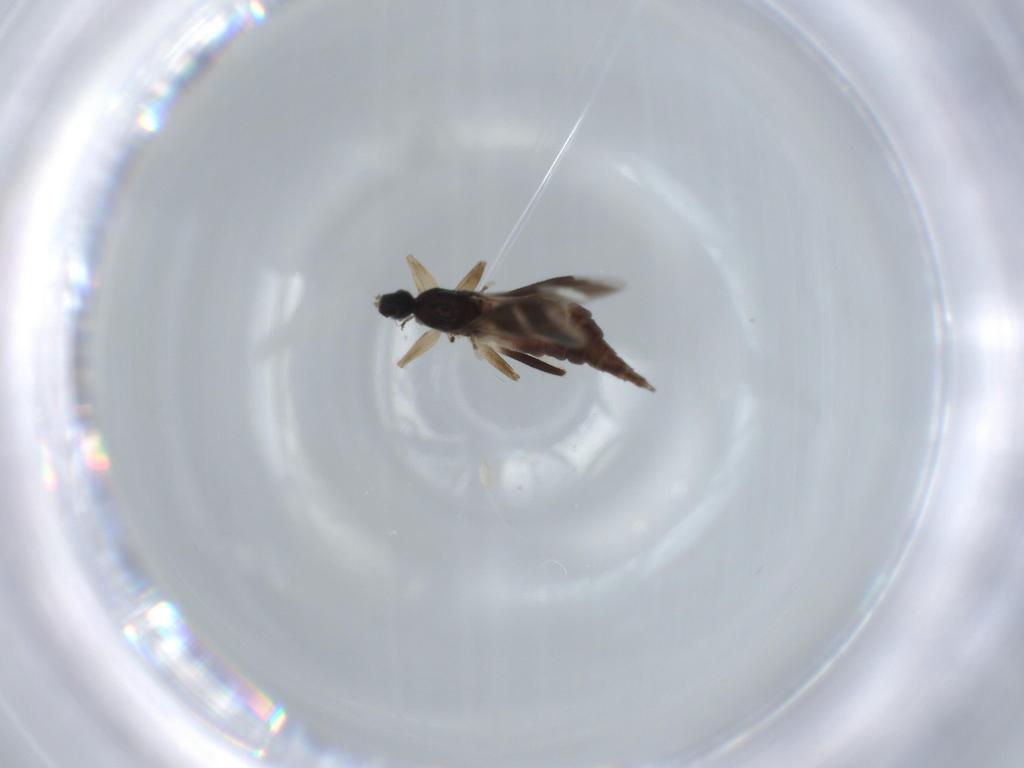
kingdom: Animalia
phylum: Arthropoda
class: Insecta
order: Diptera
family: Hybotidae
